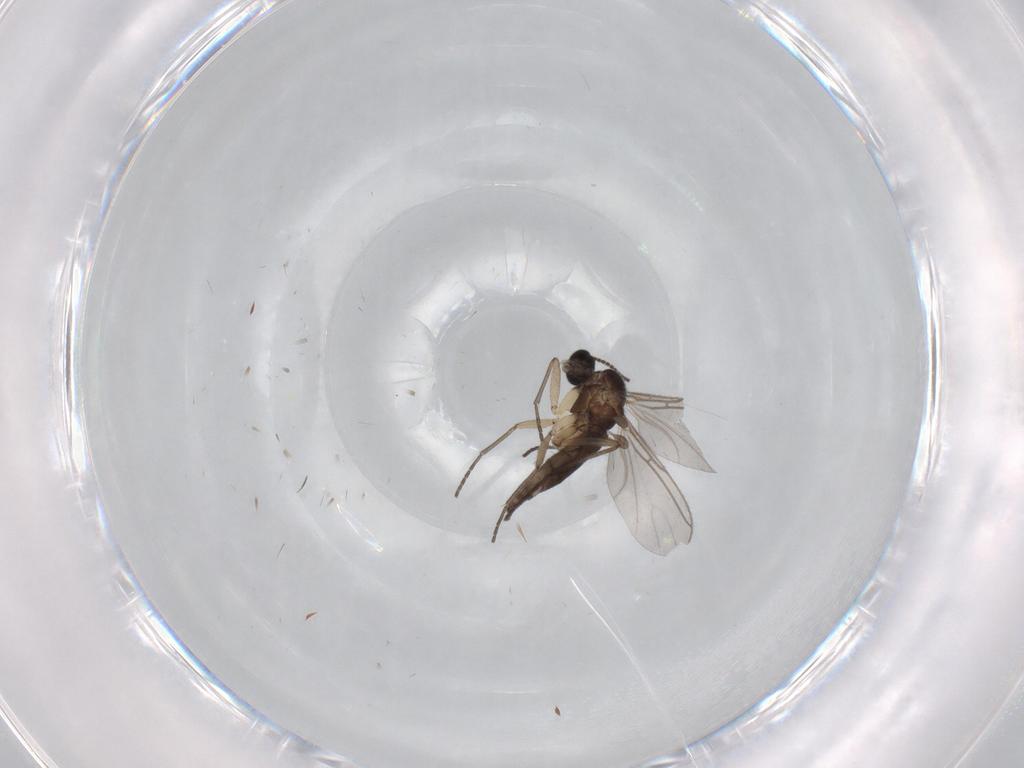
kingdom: Animalia
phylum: Arthropoda
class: Insecta
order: Diptera
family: Sciaridae
